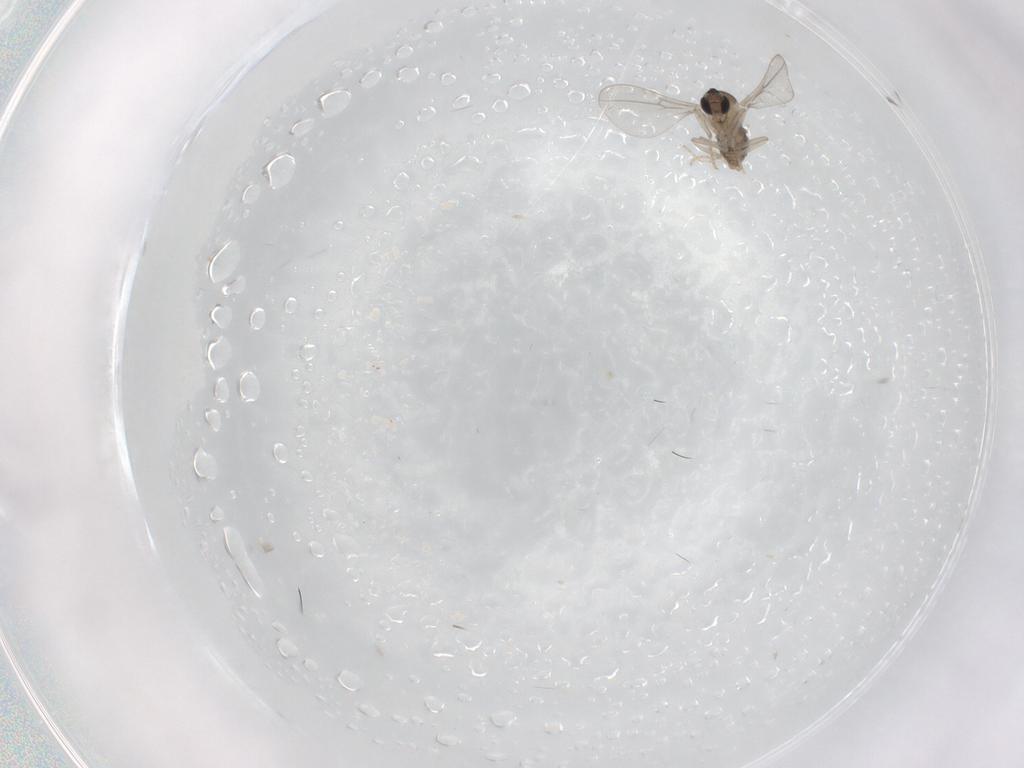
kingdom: Animalia
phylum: Arthropoda
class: Insecta
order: Diptera
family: Cecidomyiidae
